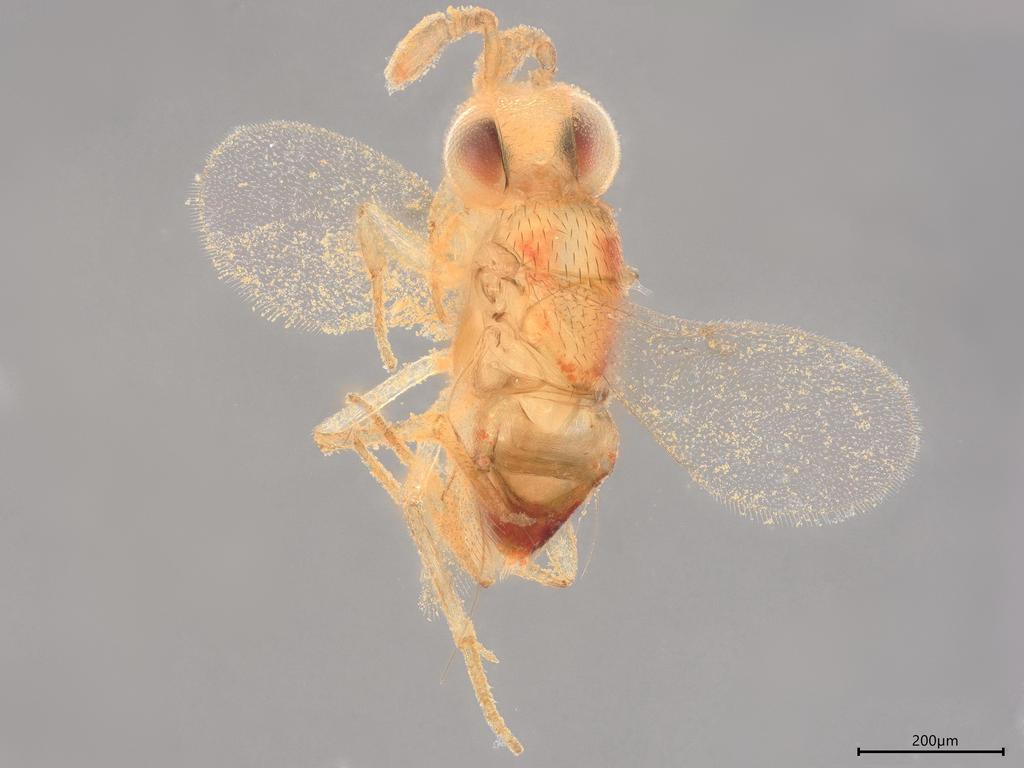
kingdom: Animalia
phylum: Arthropoda
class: Insecta
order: Hymenoptera
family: Encyrtidae
